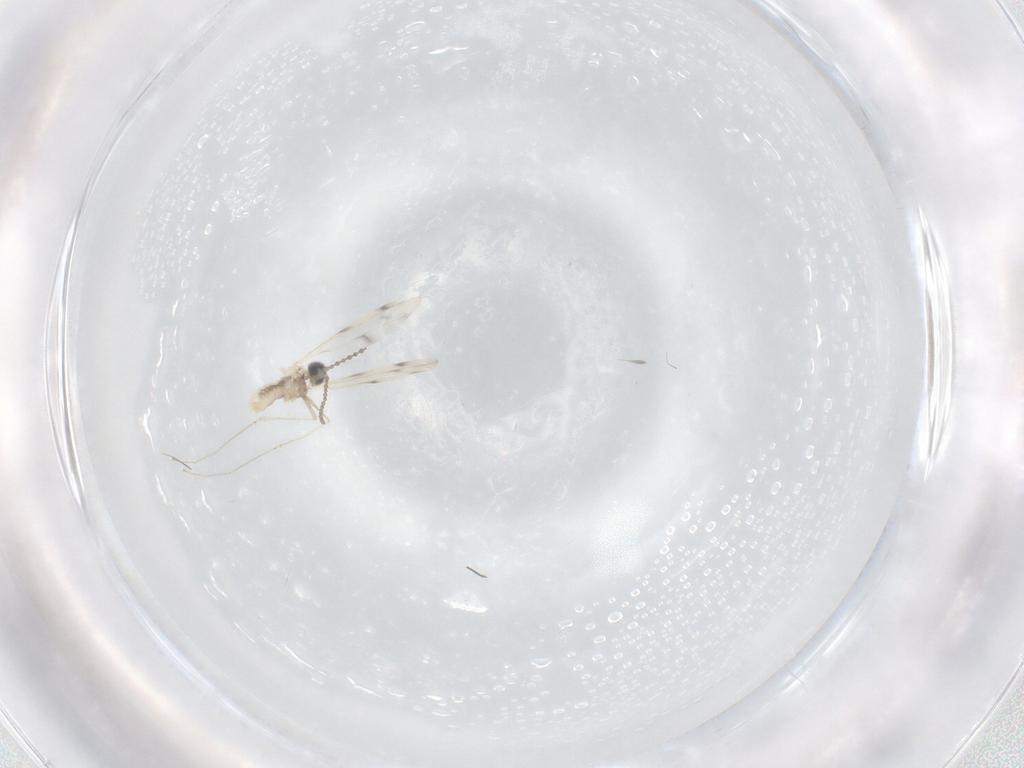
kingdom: Animalia
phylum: Arthropoda
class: Insecta
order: Diptera
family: Cecidomyiidae
